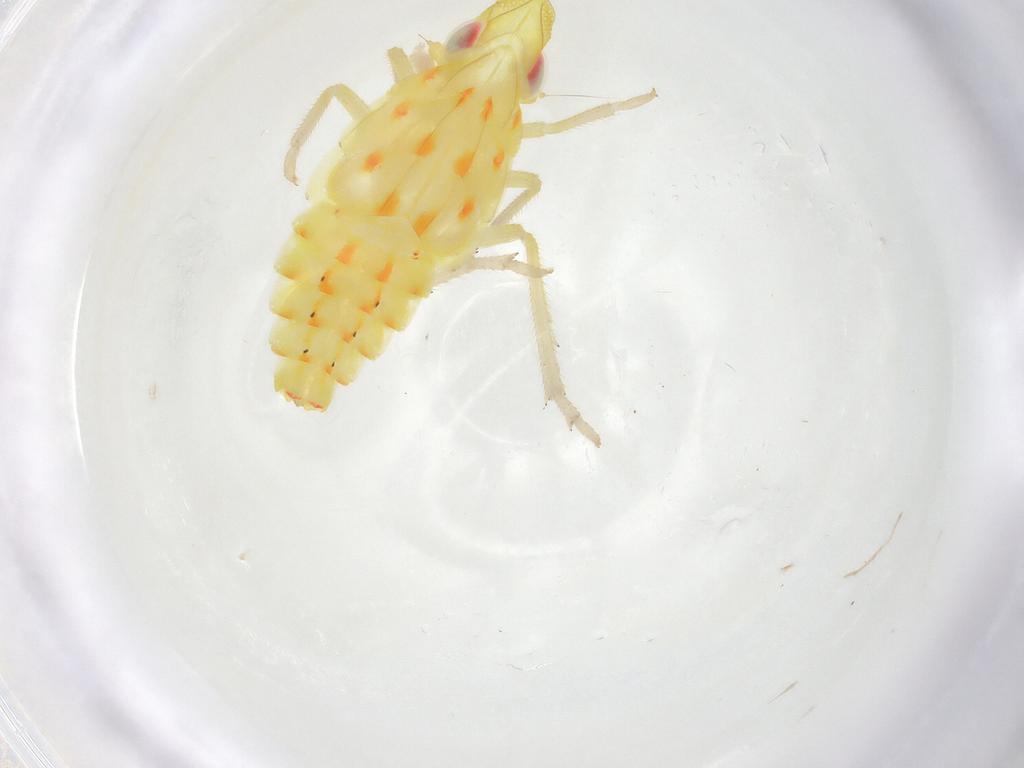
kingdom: Animalia
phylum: Arthropoda
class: Insecta
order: Hemiptera
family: Tropiduchidae
